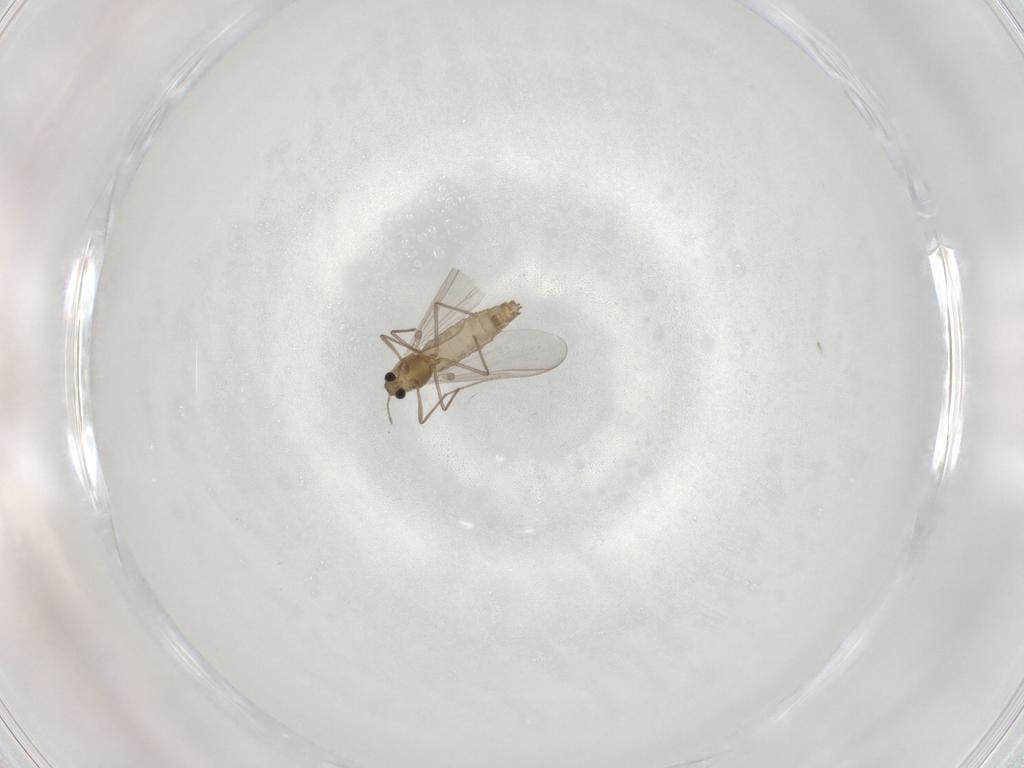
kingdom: Animalia
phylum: Arthropoda
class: Insecta
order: Diptera
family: Chironomidae
